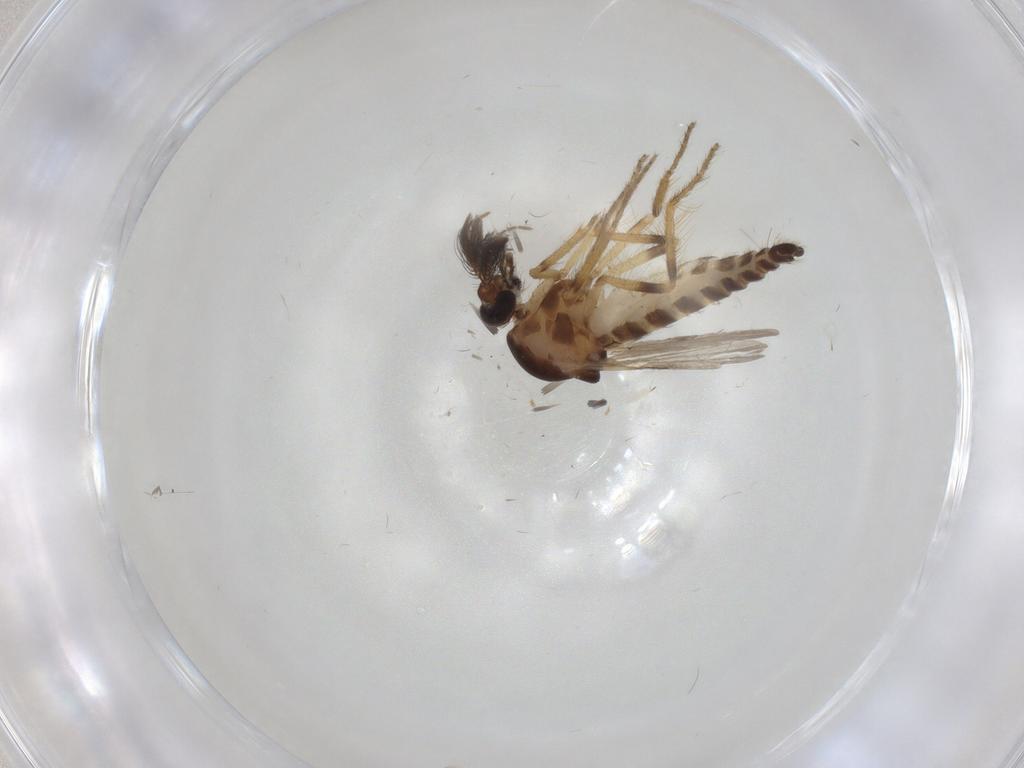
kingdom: Animalia
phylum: Arthropoda
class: Insecta
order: Diptera
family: Ceratopogonidae
